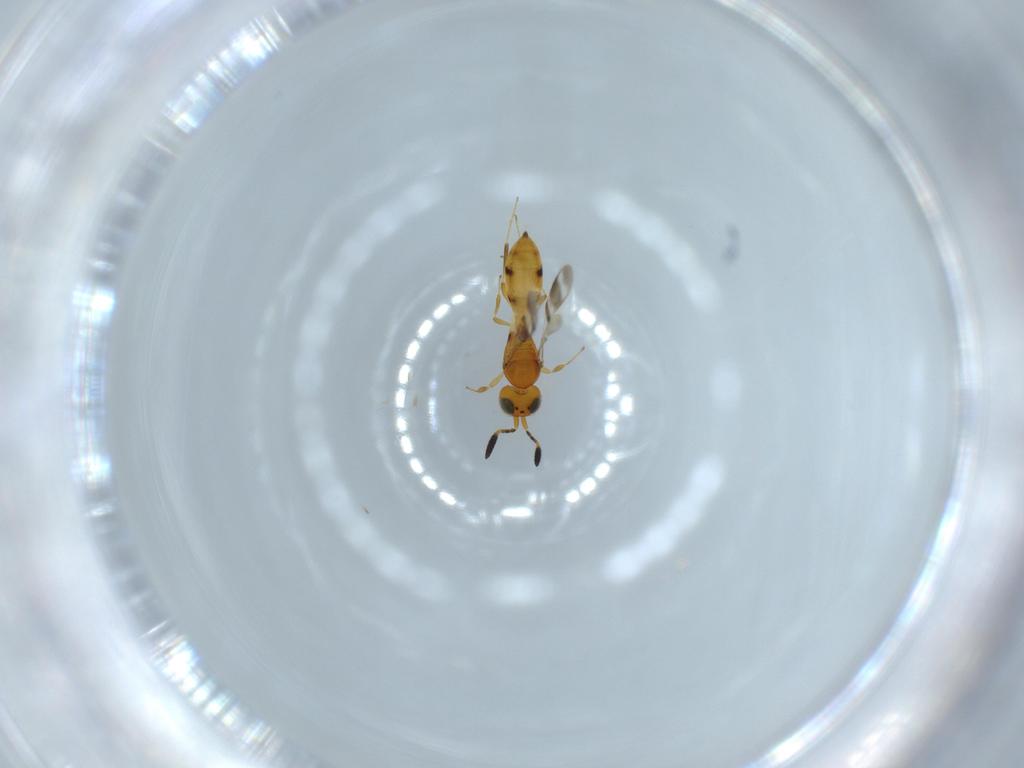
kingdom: Animalia
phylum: Arthropoda
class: Insecta
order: Hymenoptera
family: Scelionidae
